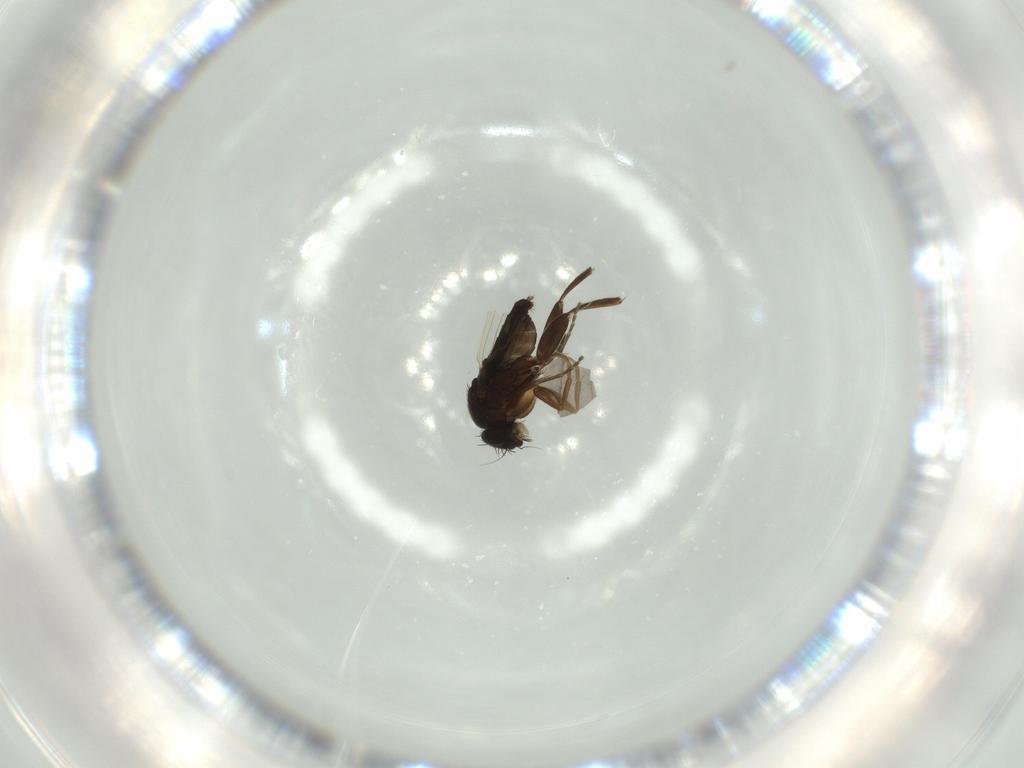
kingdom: Animalia
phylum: Arthropoda
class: Insecta
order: Diptera
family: Phoridae
